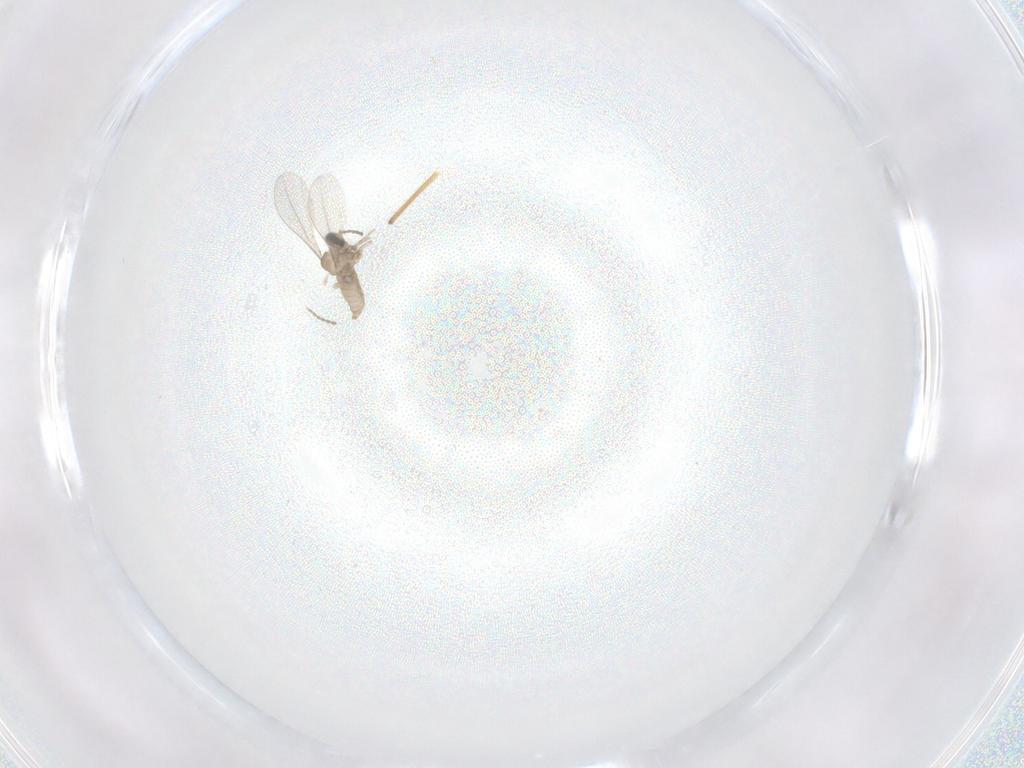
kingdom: Animalia
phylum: Arthropoda
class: Insecta
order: Diptera
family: Cecidomyiidae
